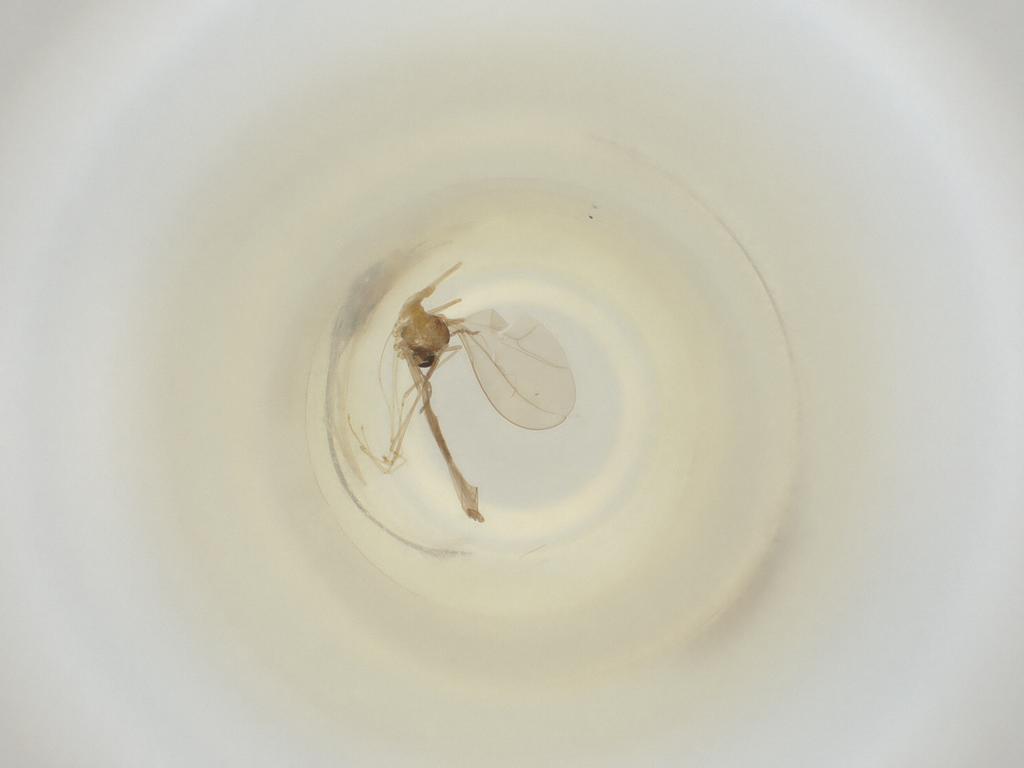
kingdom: Animalia
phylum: Arthropoda
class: Insecta
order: Diptera
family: Cecidomyiidae
